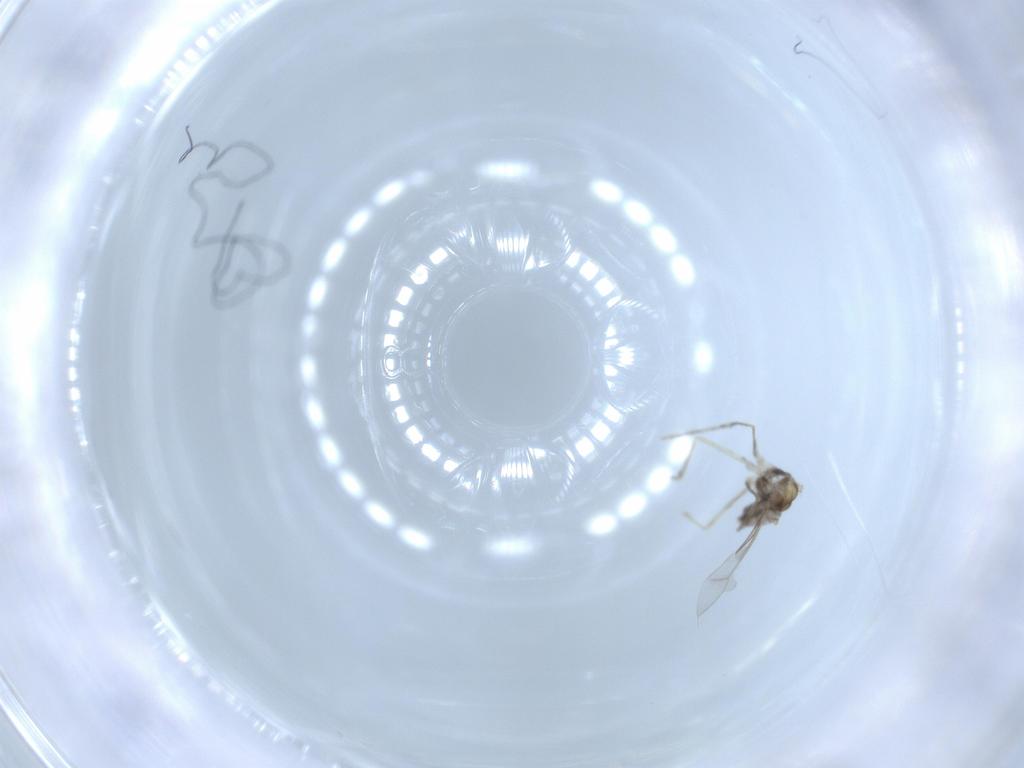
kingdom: Animalia
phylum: Arthropoda
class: Insecta
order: Diptera
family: Cecidomyiidae
